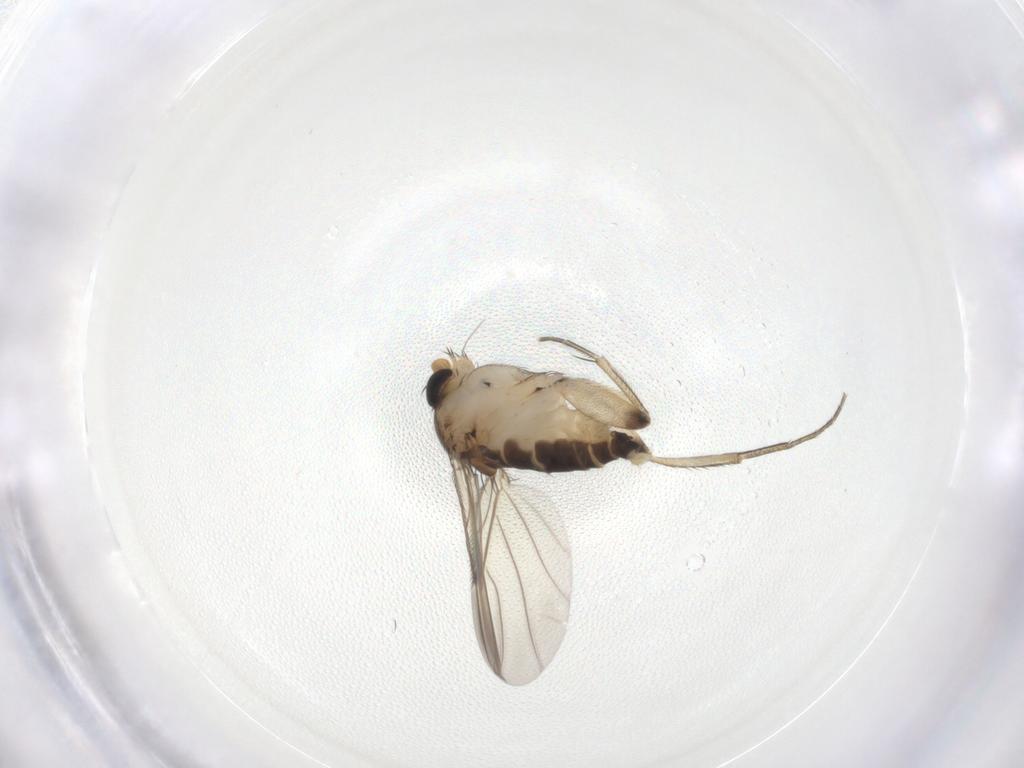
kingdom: Animalia
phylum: Arthropoda
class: Insecta
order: Diptera
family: Phoridae
